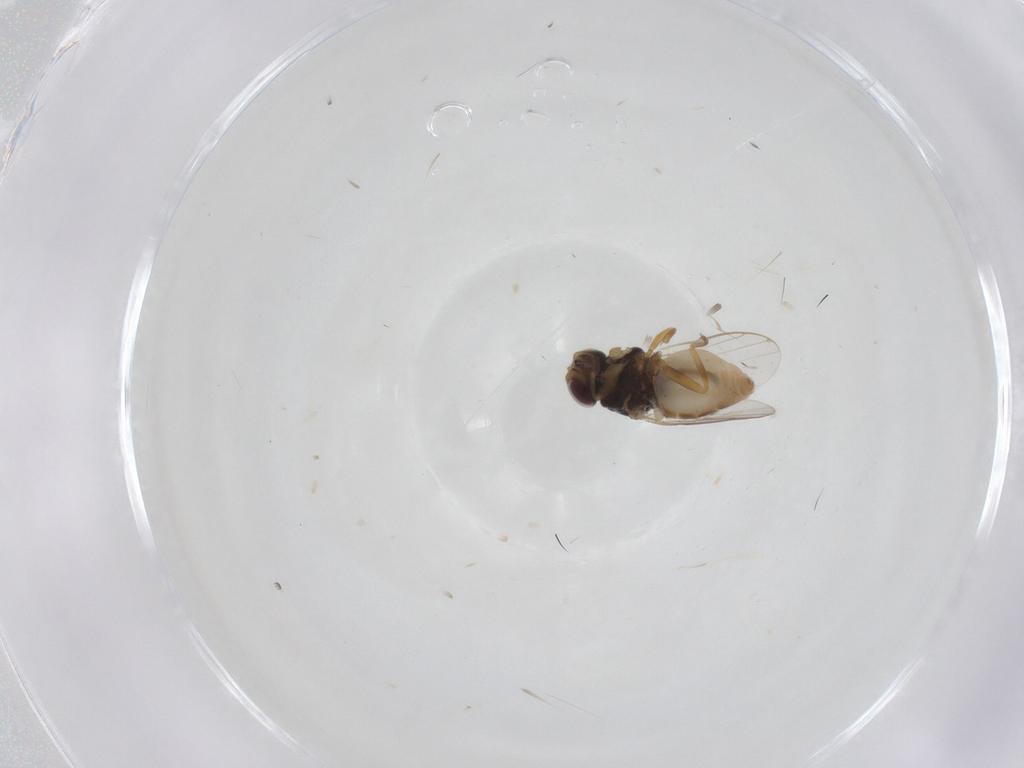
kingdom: Animalia
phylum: Arthropoda
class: Insecta
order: Diptera
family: Chloropidae
